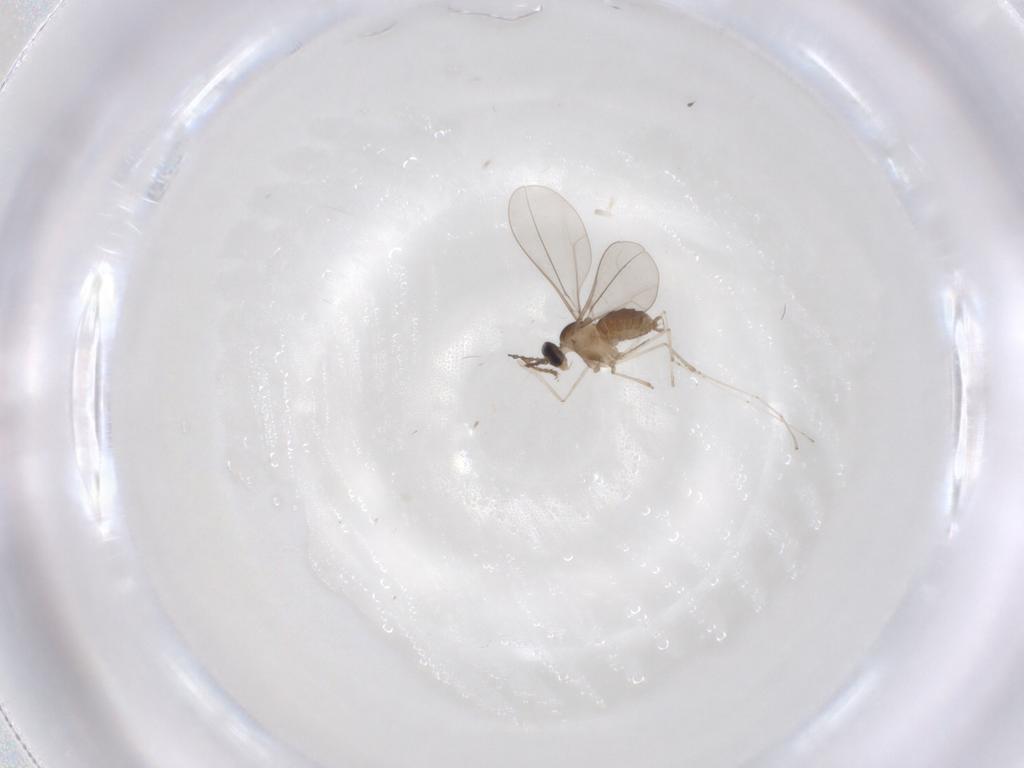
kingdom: Animalia
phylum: Arthropoda
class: Insecta
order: Diptera
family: Cecidomyiidae
